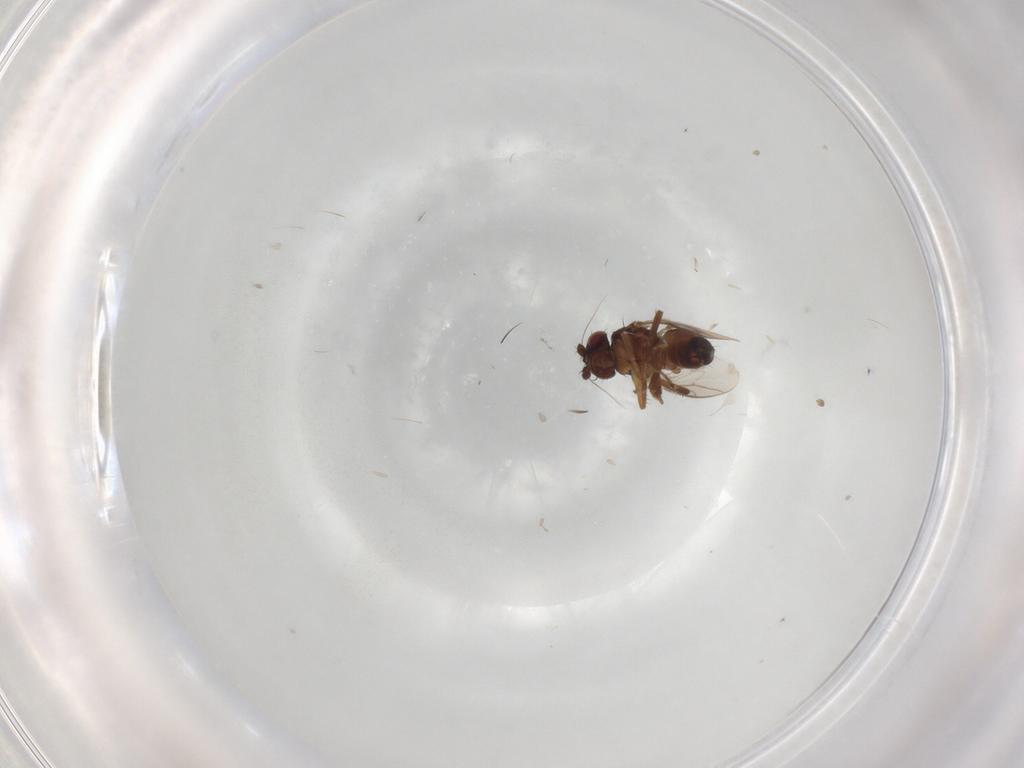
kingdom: Animalia
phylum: Arthropoda
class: Insecta
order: Diptera
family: Sphaeroceridae
